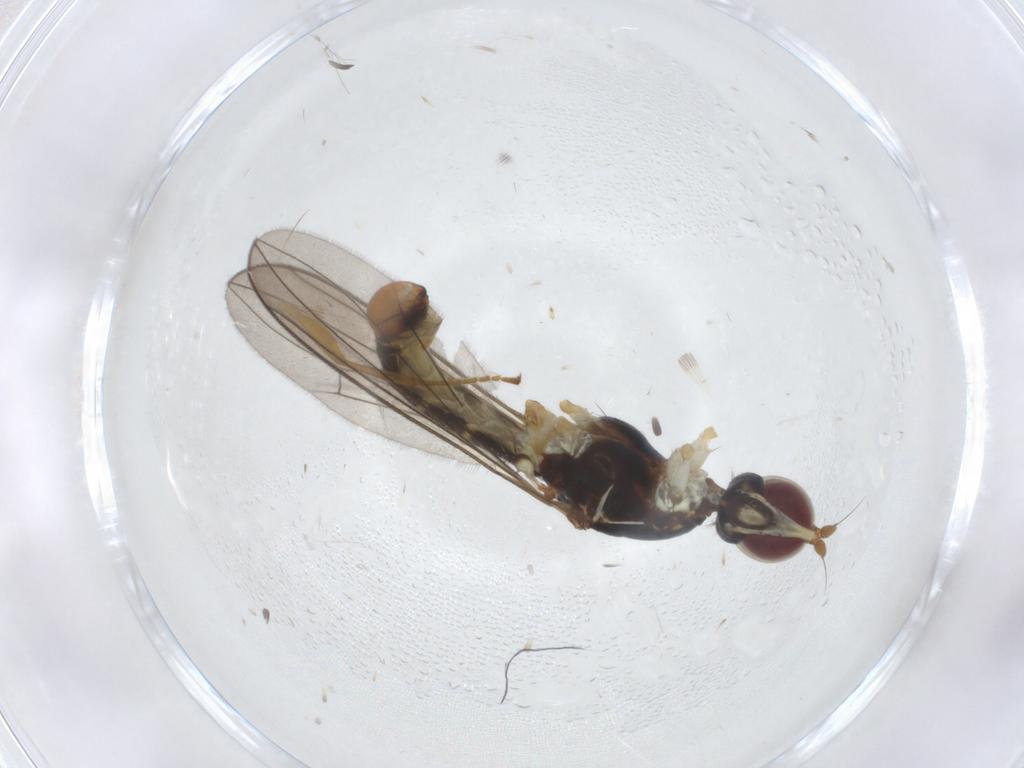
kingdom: Animalia
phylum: Arthropoda
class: Insecta
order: Diptera
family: Micropezidae
